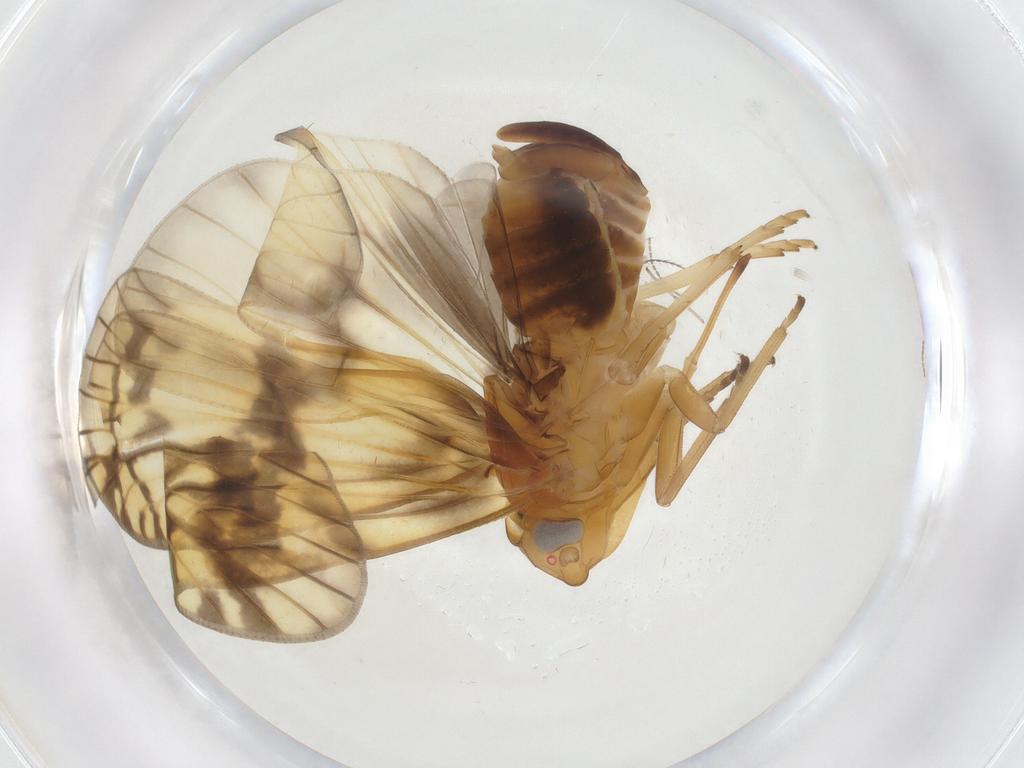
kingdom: Animalia
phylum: Arthropoda
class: Insecta
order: Hemiptera
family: Cixiidae
